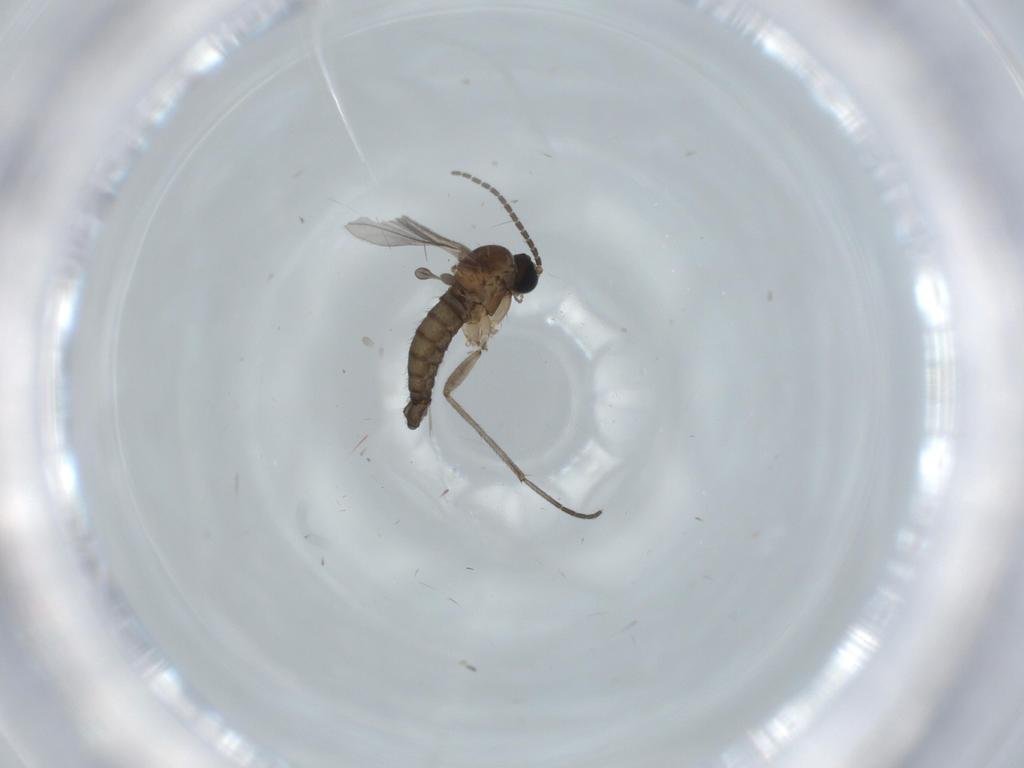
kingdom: Animalia
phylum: Arthropoda
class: Insecta
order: Diptera
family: Sciaridae
